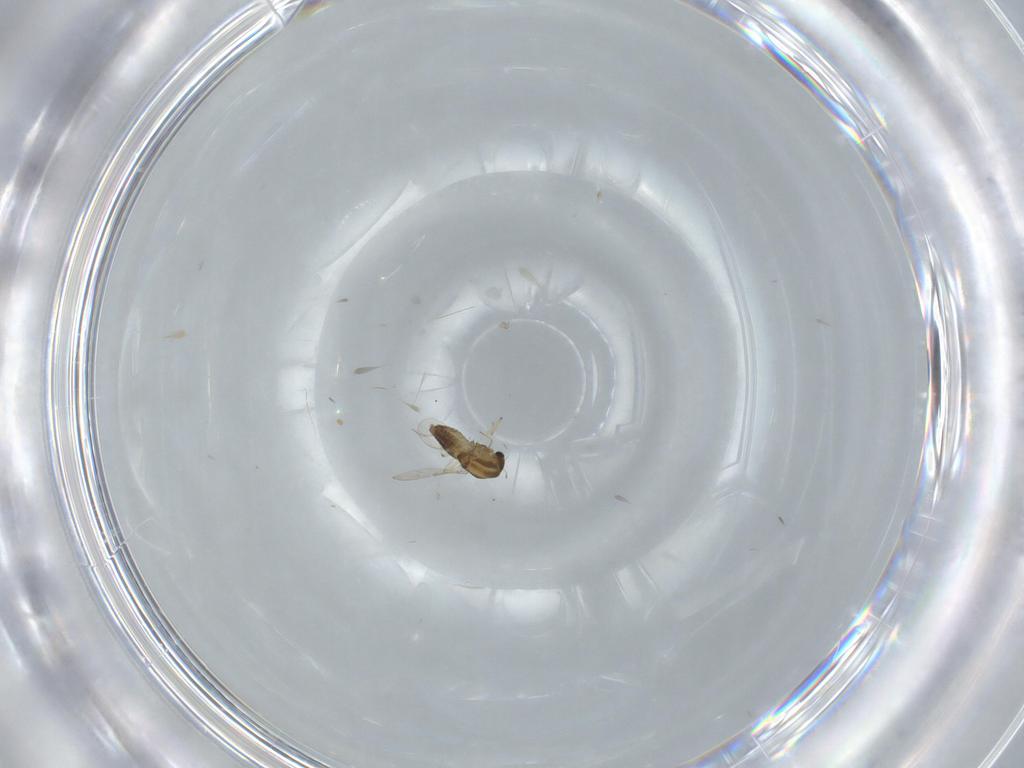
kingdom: Animalia
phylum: Arthropoda
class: Insecta
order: Diptera
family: Chironomidae
